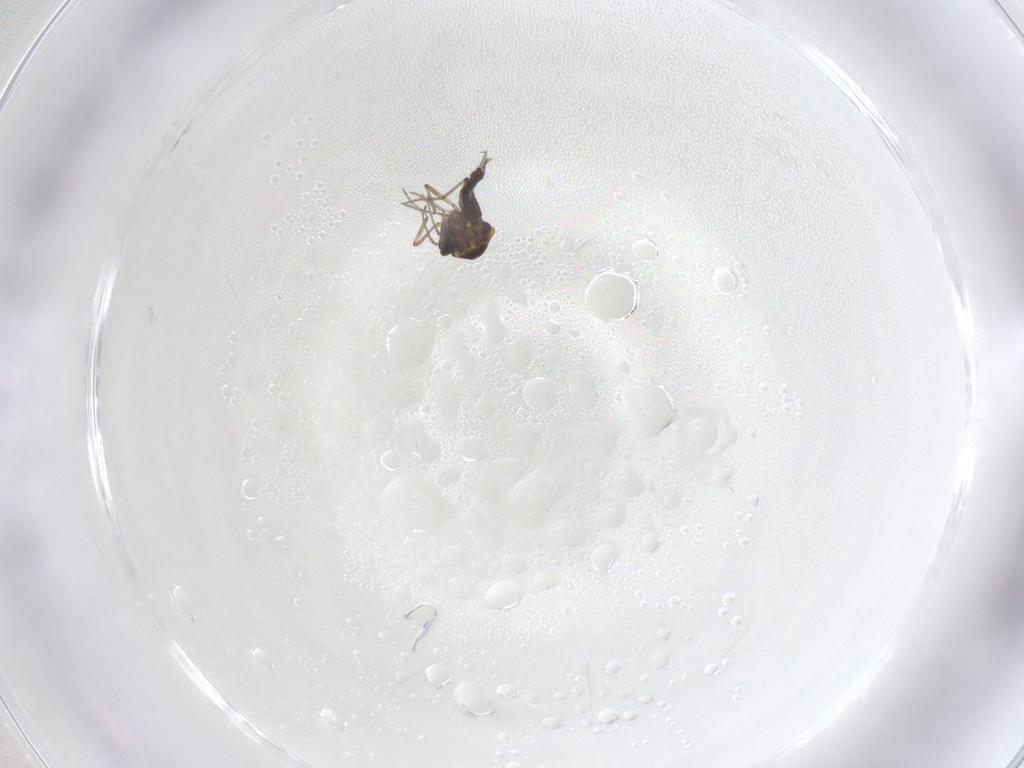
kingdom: Animalia
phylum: Arthropoda
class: Insecta
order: Diptera
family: Ceratopogonidae
